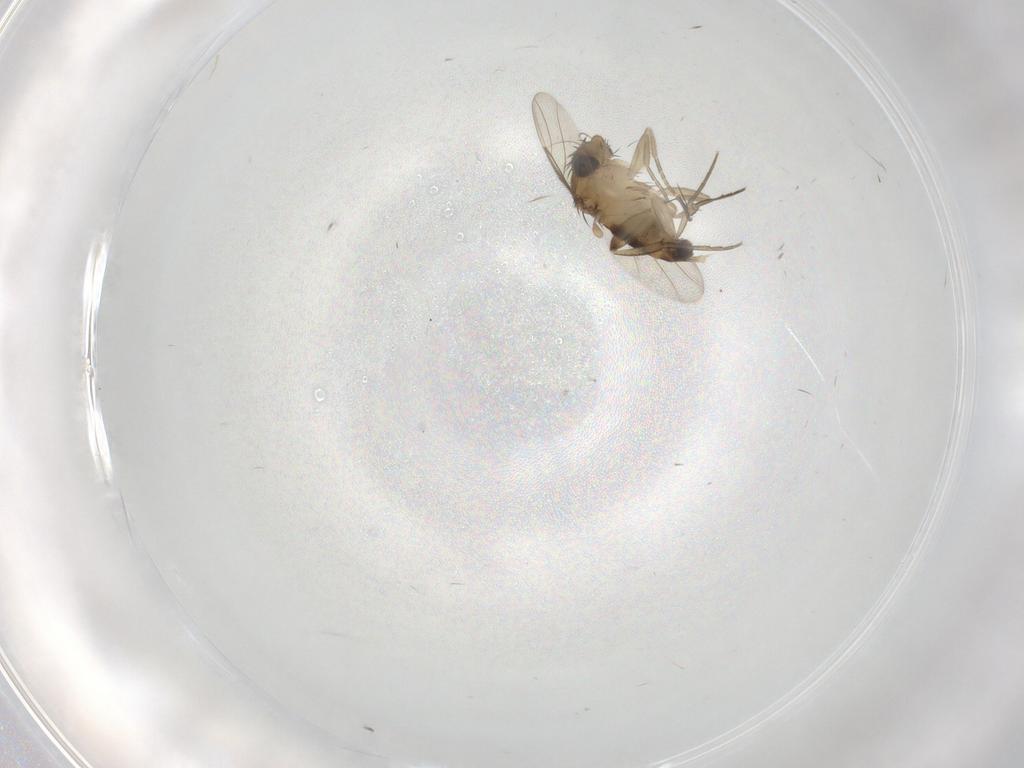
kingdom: Animalia
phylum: Arthropoda
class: Insecta
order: Diptera
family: Phoridae
